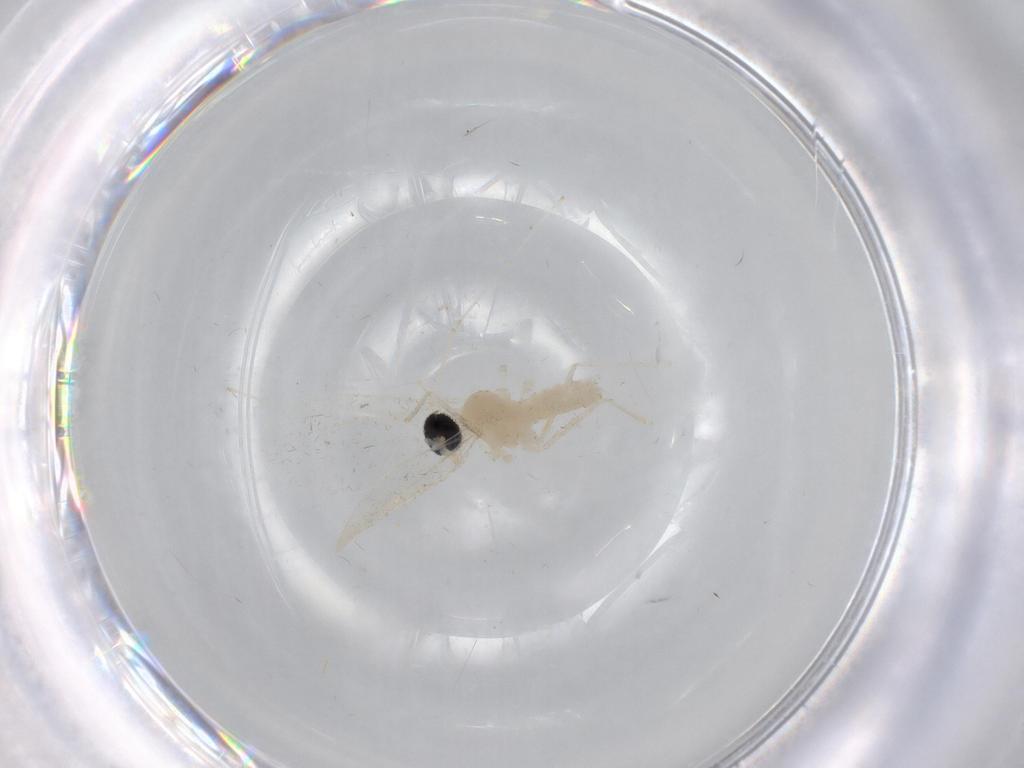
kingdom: Animalia
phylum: Arthropoda
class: Insecta
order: Diptera
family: Cecidomyiidae
